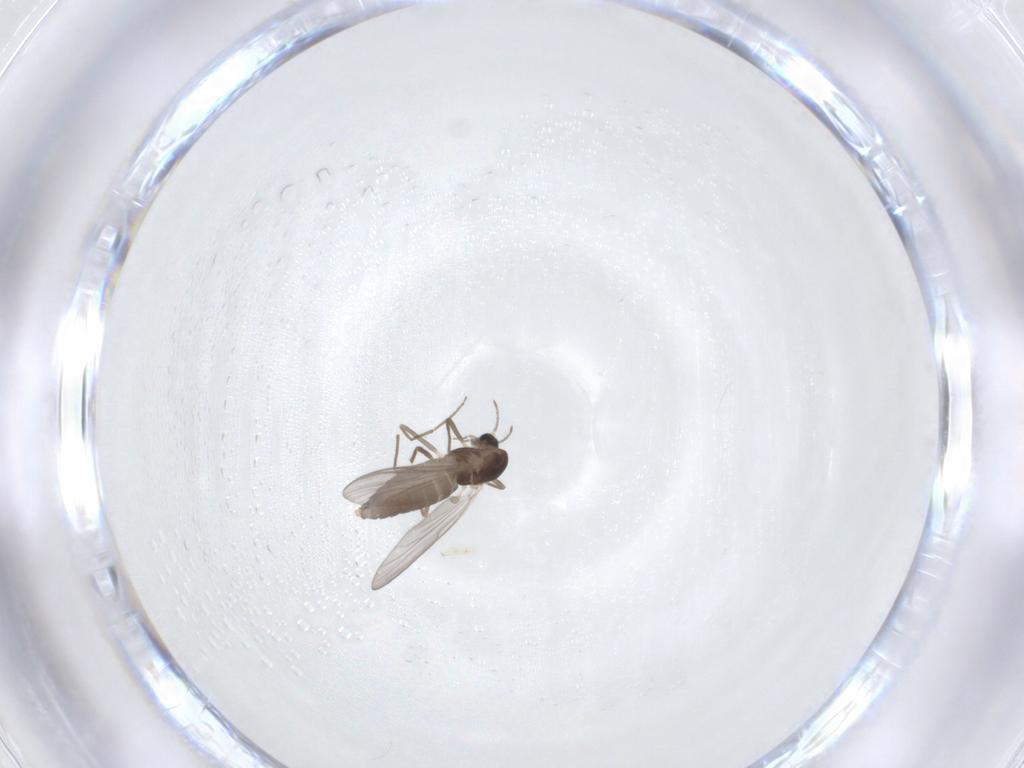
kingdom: Animalia
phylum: Arthropoda
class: Insecta
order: Diptera
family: Chironomidae
